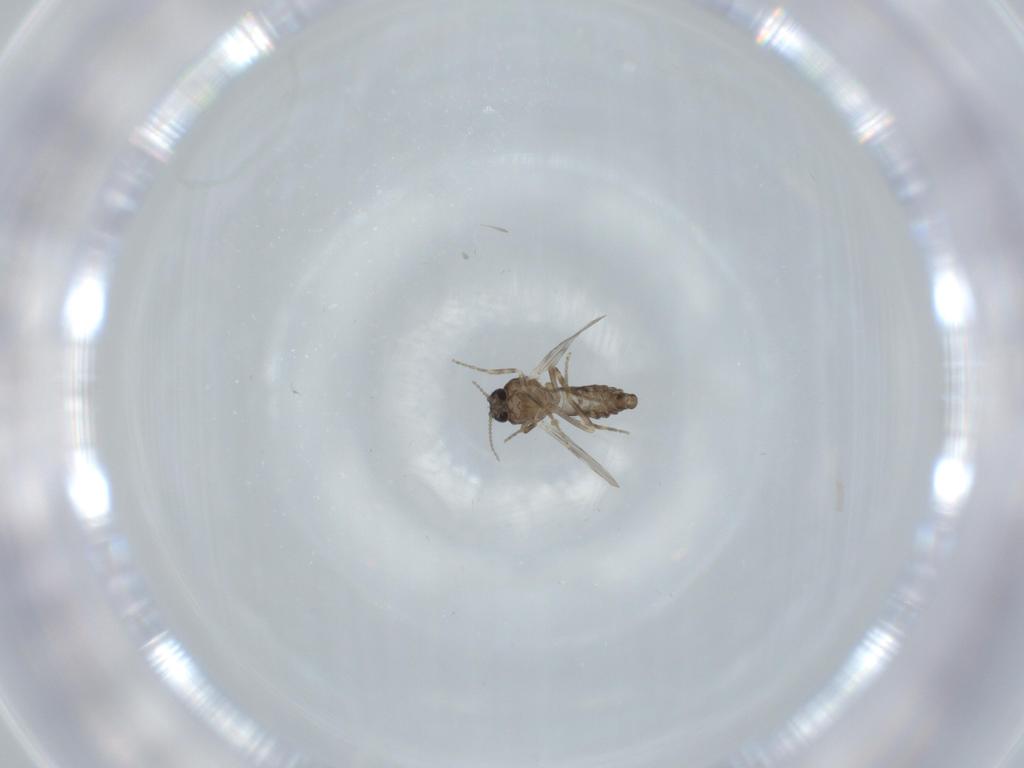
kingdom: Animalia
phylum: Arthropoda
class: Insecta
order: Diptera
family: Ceratopogonidae
